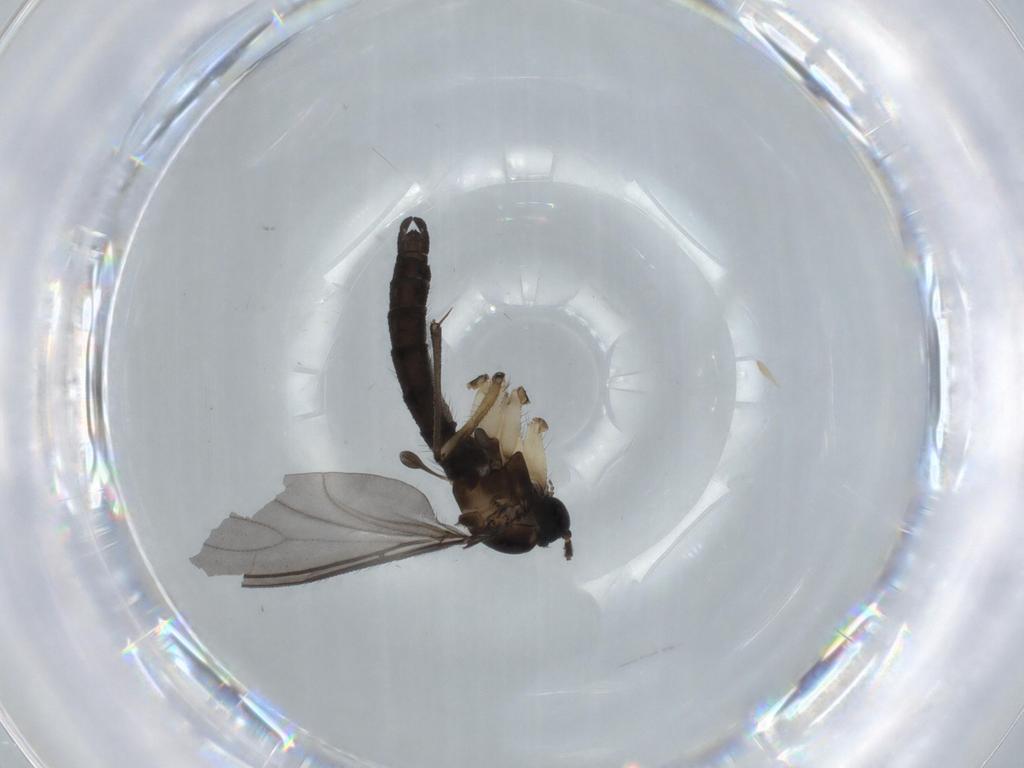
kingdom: Animalia
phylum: Arthropoda
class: Insecta
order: Diptera
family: Sciaridae
